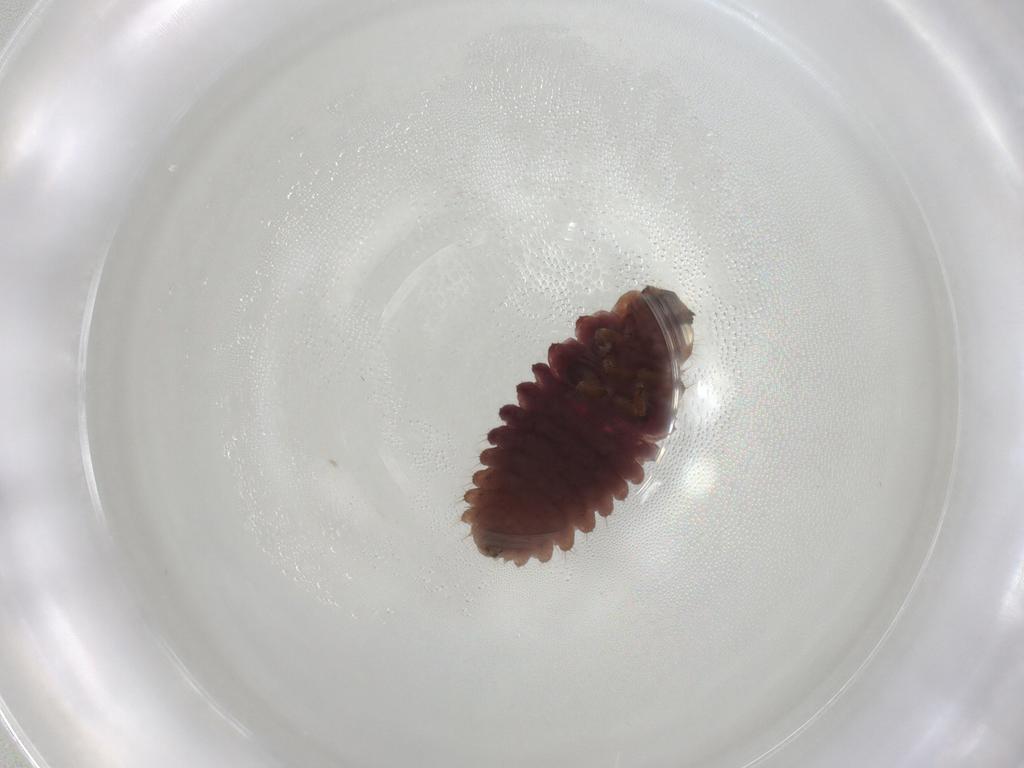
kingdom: Animalia
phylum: Arthropoda
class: Insecta
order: Coleoptera
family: Coccinellidae
